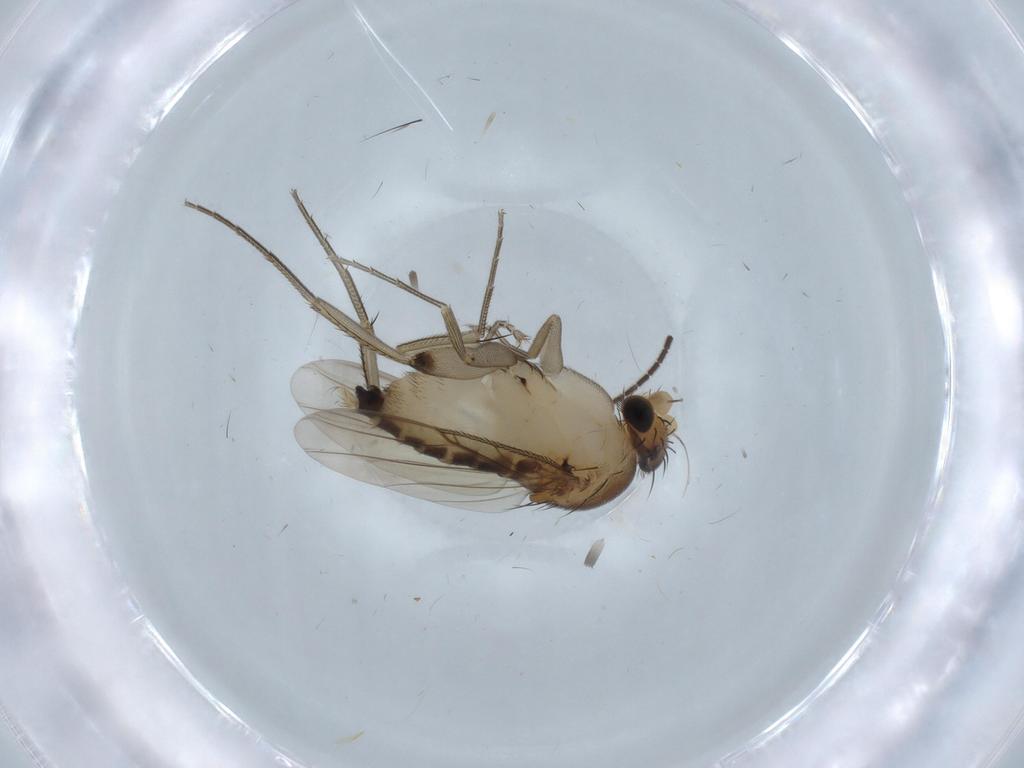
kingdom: Animalia
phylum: Arthropoda
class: Insecta
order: Diptera
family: Sciaridae
